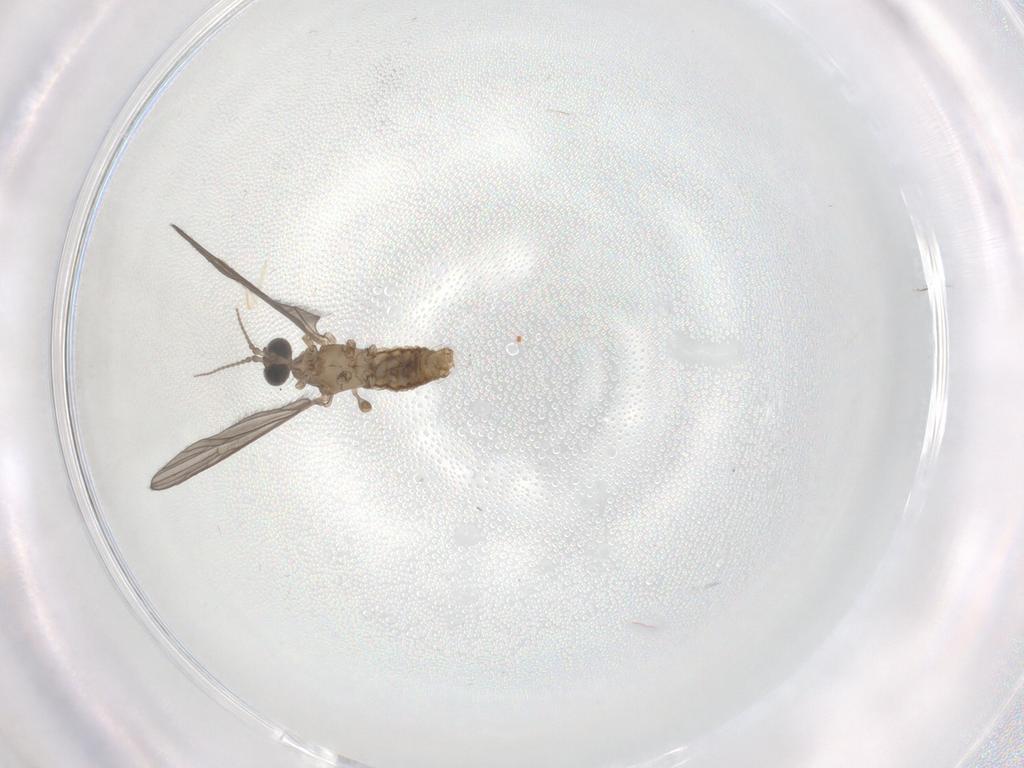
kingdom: Animalia
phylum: Arthropoda
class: Insecta
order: Diptera
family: Limoniidae
